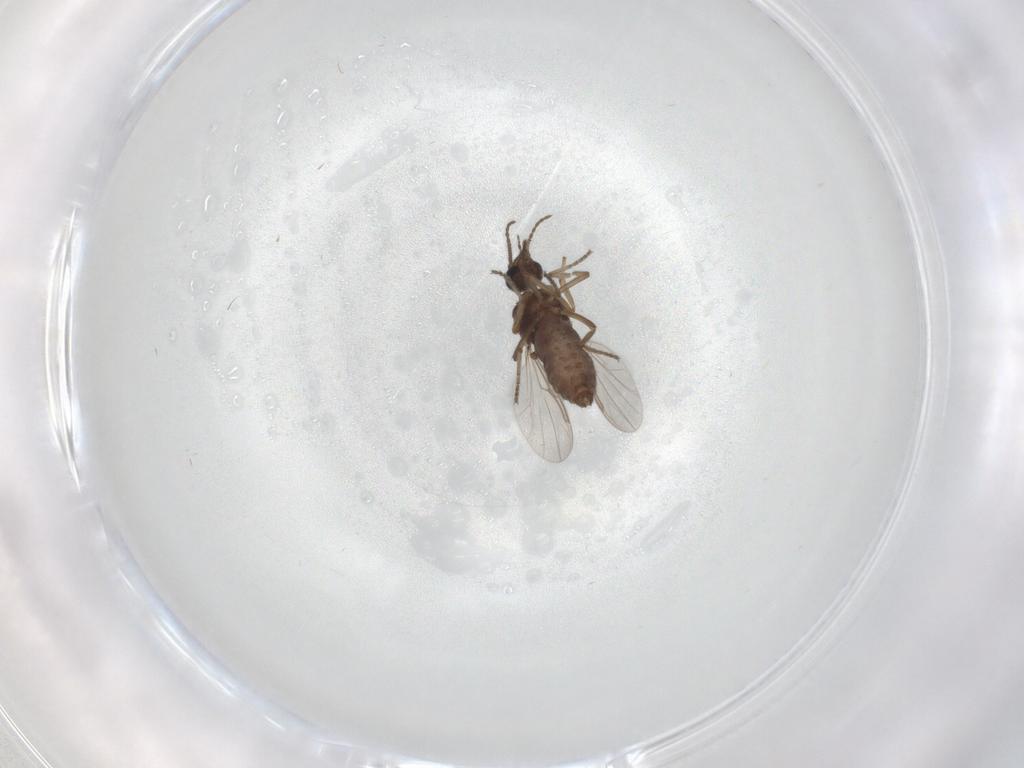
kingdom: Animalia
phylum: Arthropoda
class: Insecta
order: Diptera
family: Ceratopogonidae
